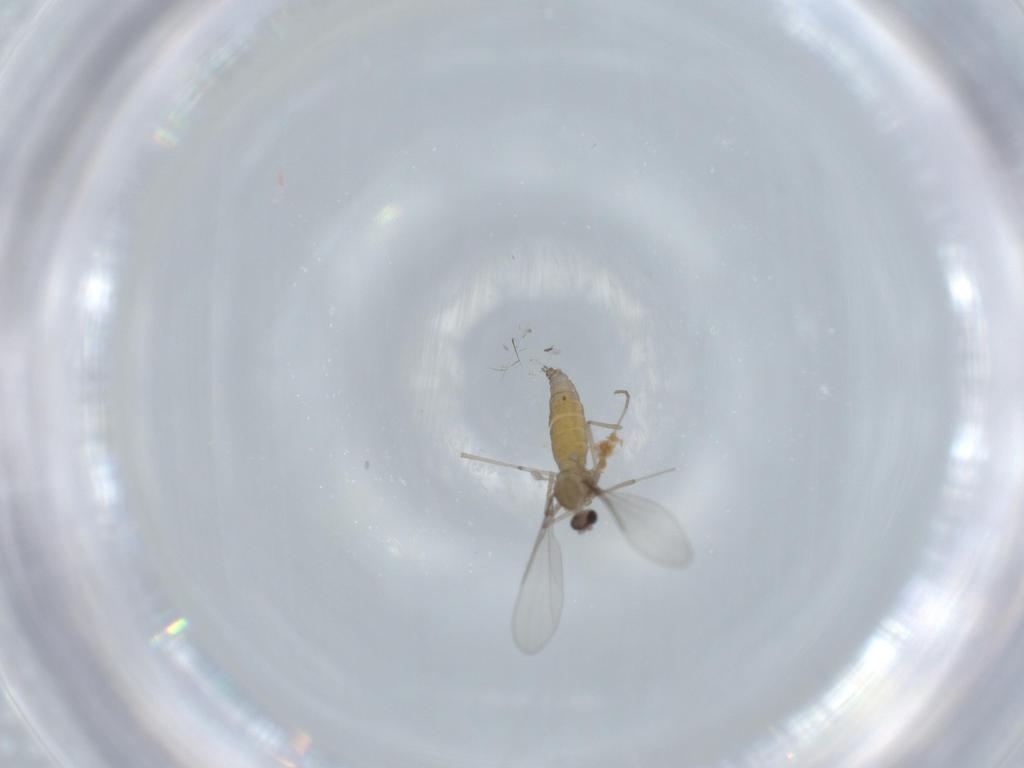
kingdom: Animalia
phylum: Arthropoda
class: Insecta
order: Diptera
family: Cecidomyiidae
